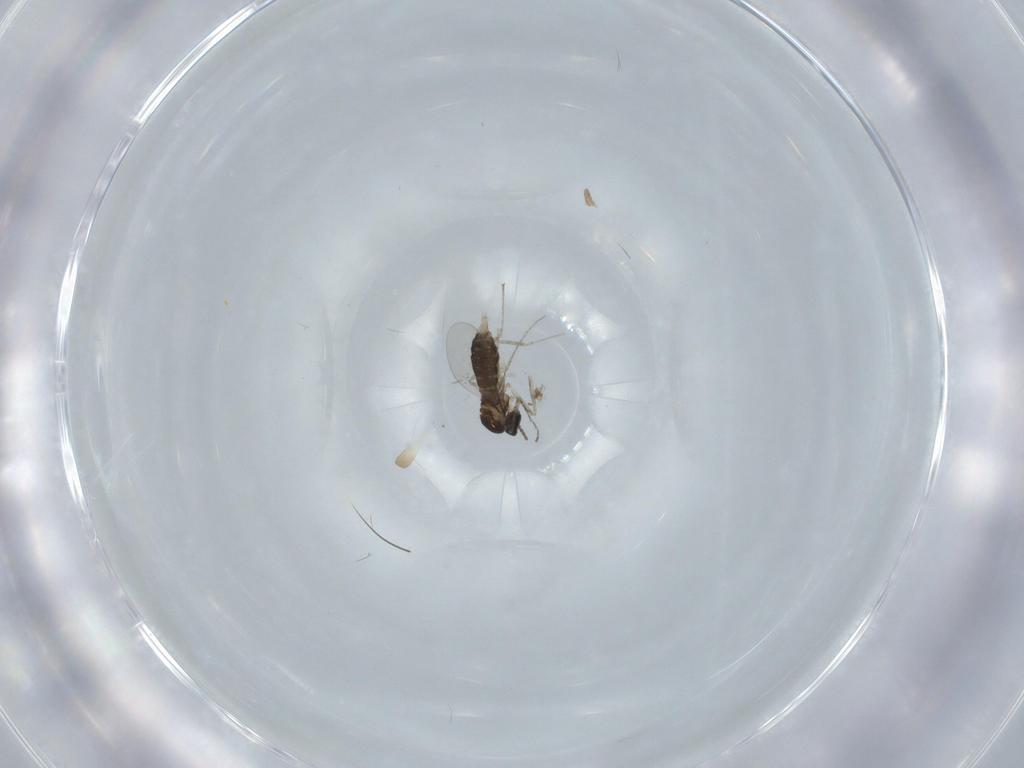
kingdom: Animalia
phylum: Arthropoda
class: Insecta
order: Diptera
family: Cecidomyiidae
